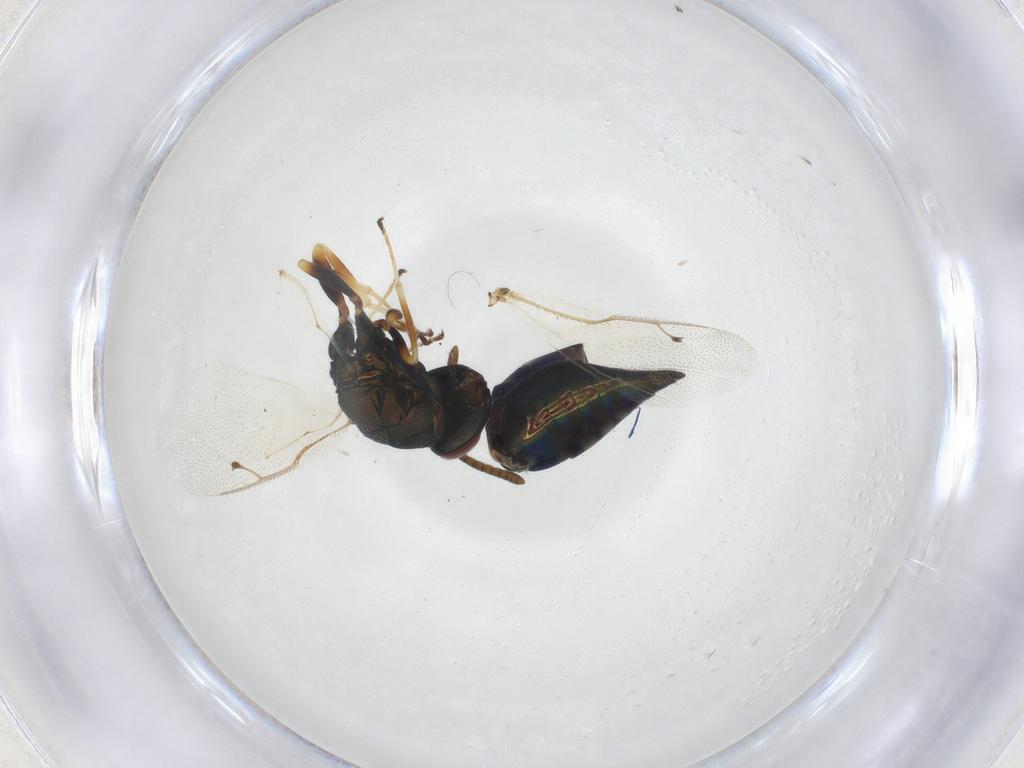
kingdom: Animalia
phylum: Arthropoda
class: Insecta
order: Hymenoptera
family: Pteromalidae
